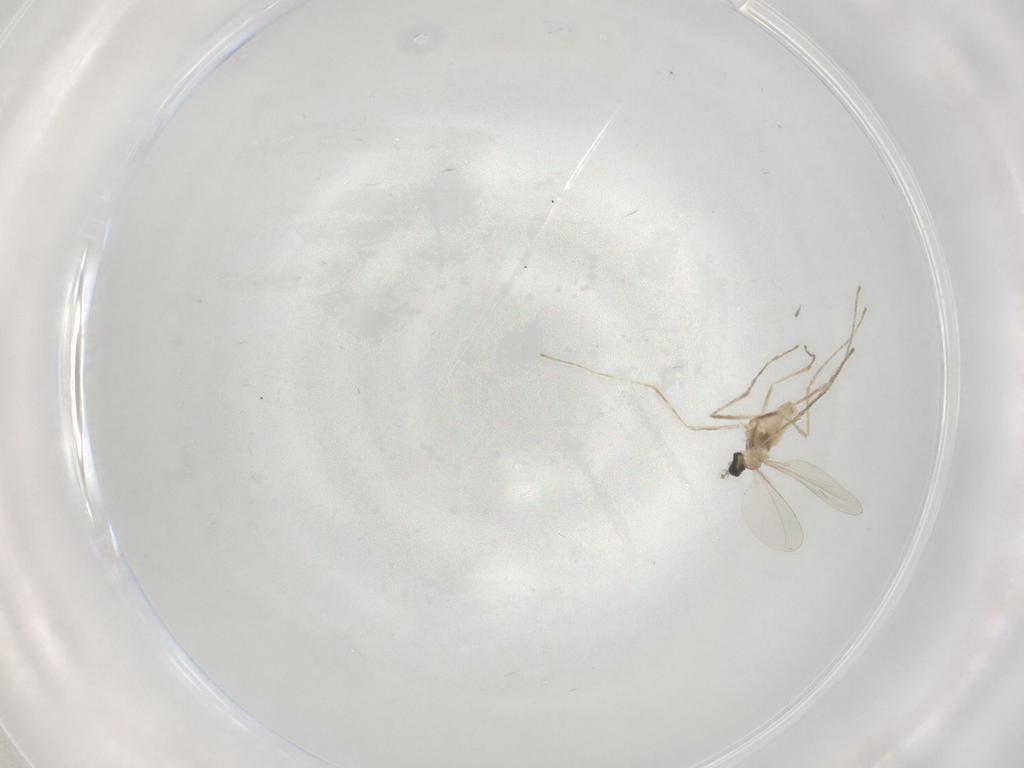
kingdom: Animalia
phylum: Arthropoda
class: Insecta
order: Diptera
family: Cecidomyiidae
